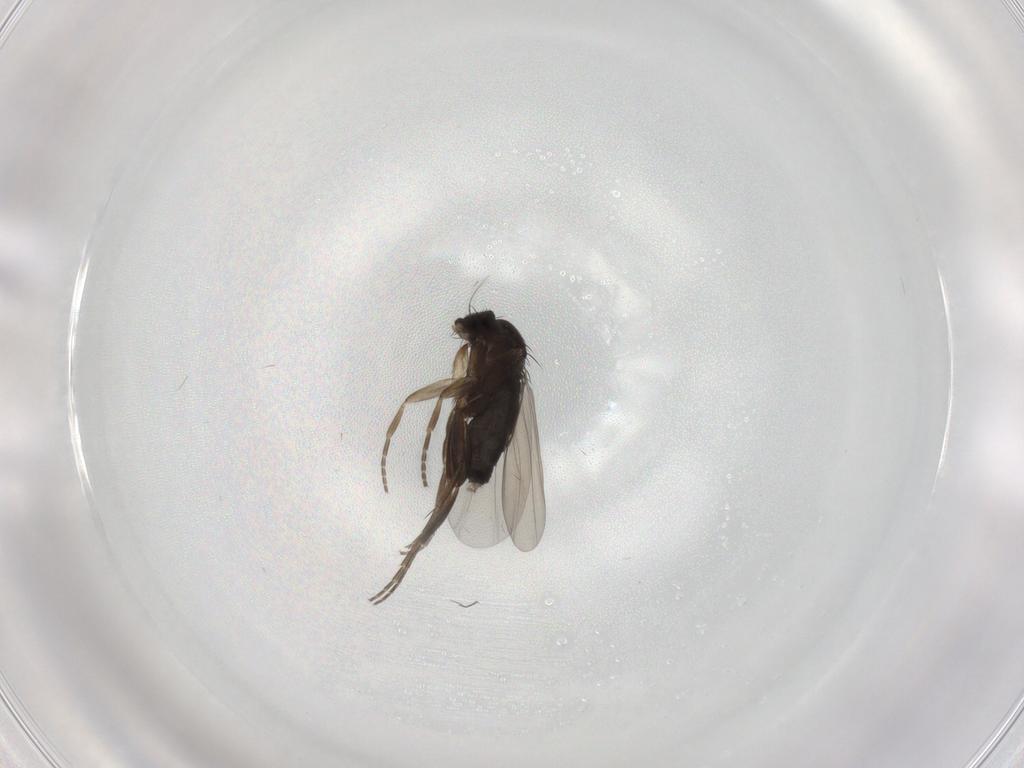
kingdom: Animalia
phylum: Arthropoda
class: Insecta
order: Diptera
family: Phoridae
